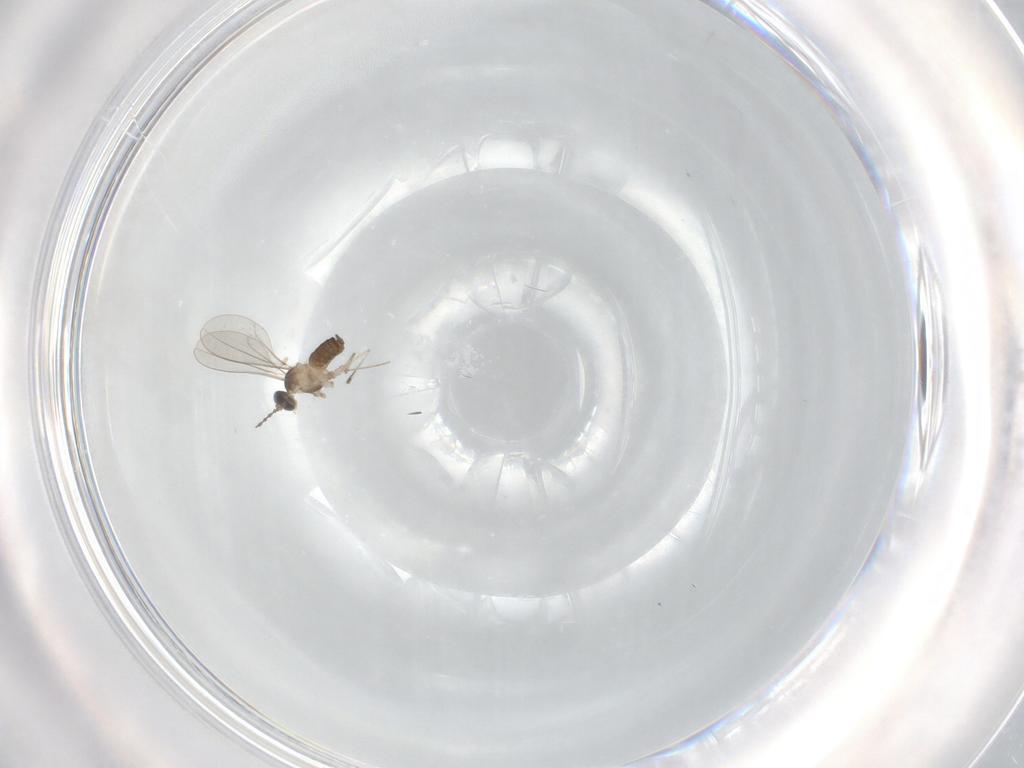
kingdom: Animalia
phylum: Arthropoda
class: Insecta
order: Diptera
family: Cecidomyiidae
